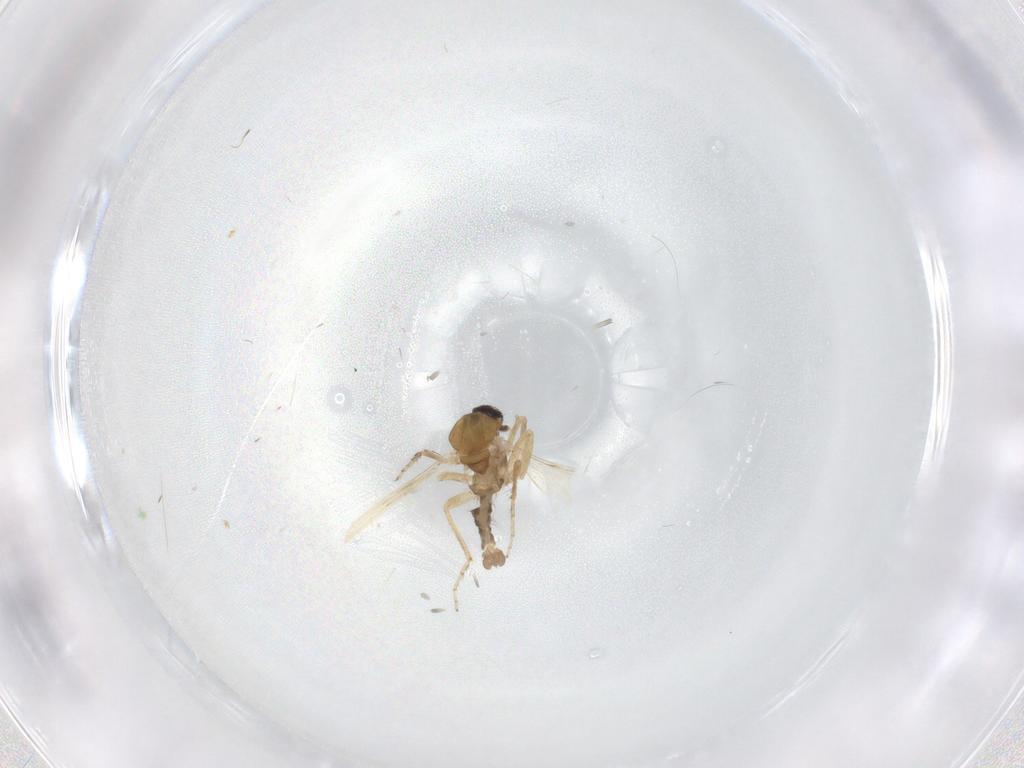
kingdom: Animalia
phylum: Arthropoda
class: Insecta
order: Diptera
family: Ceratopogonidae
